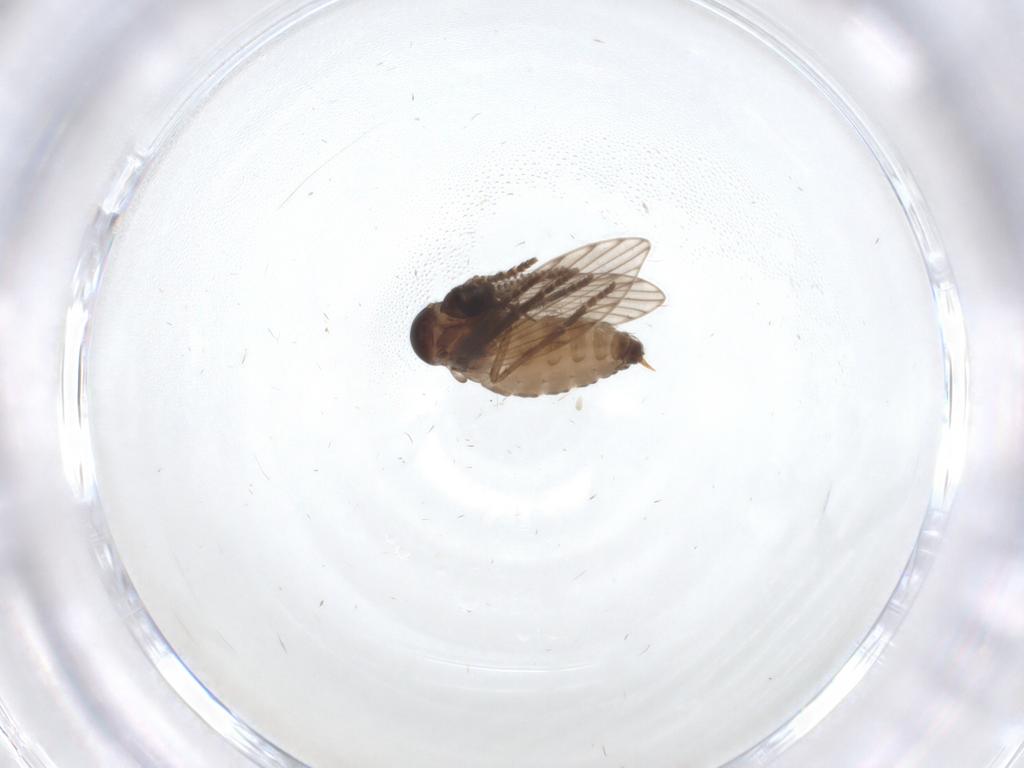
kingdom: Animalia
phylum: Arthropoda
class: Insecta
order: Diptera
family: Psychodidae
